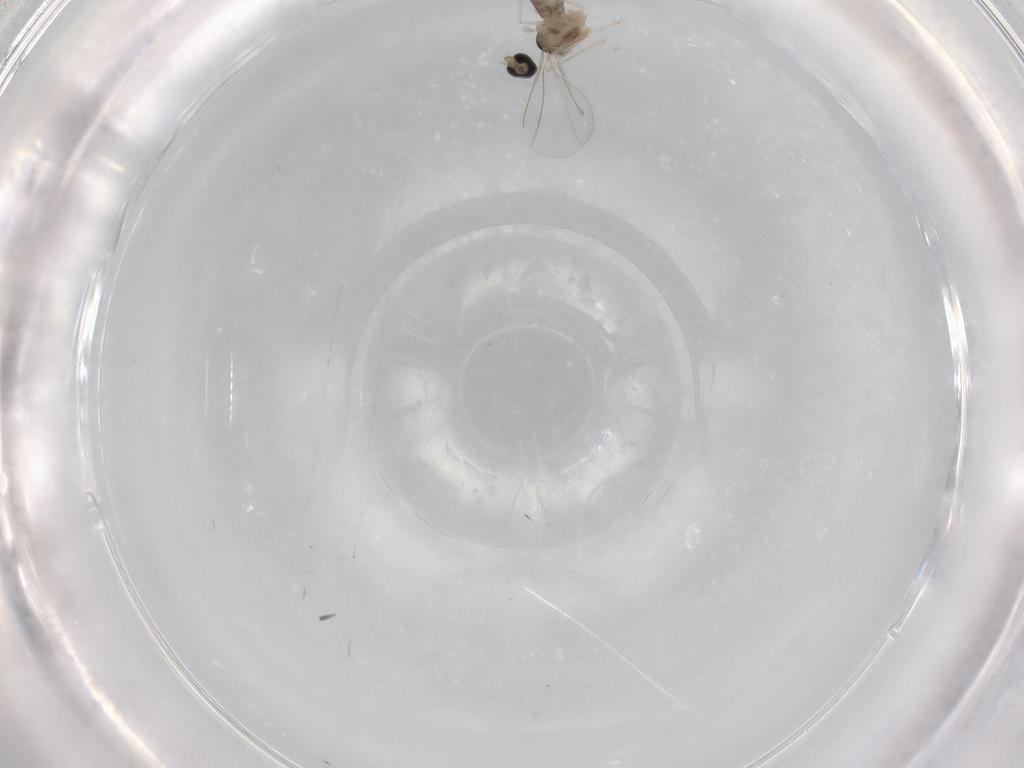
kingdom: Animalia
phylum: Arthropoda
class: Insecta
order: Diptera
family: Cecidomyiidae
